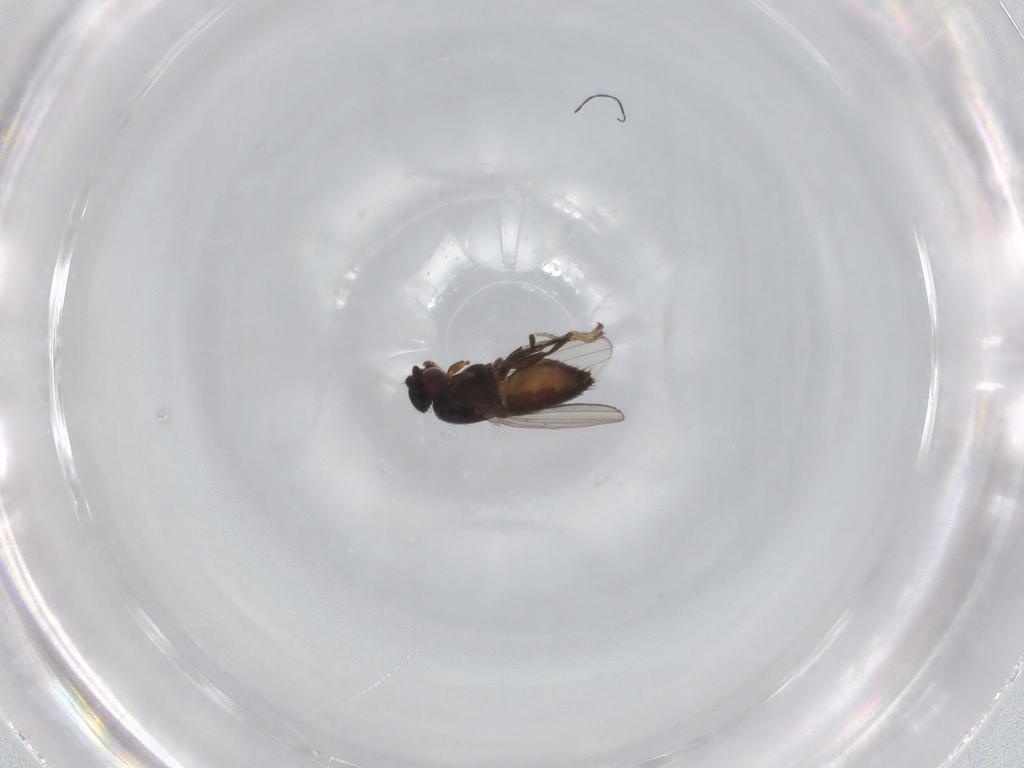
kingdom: Animalia
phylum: Arthropoda
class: Insecta
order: Diptera
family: Milichiidae
